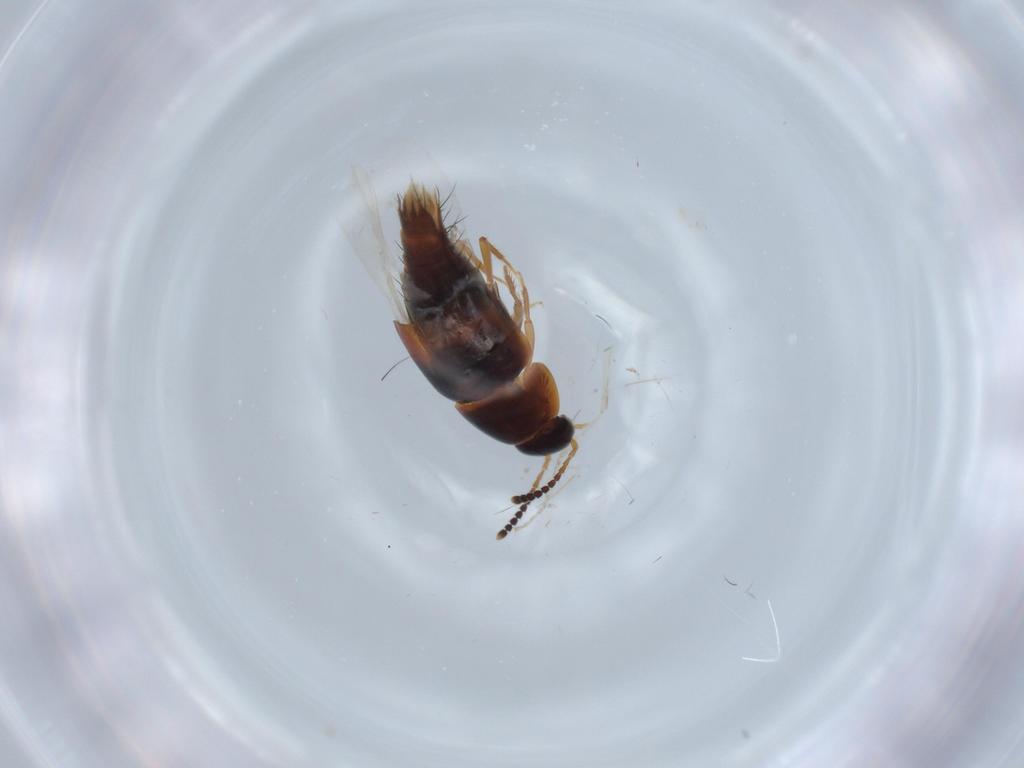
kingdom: Animalia
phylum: Arthropoda
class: Insecta
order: Coleoptera
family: Staphylinidae
